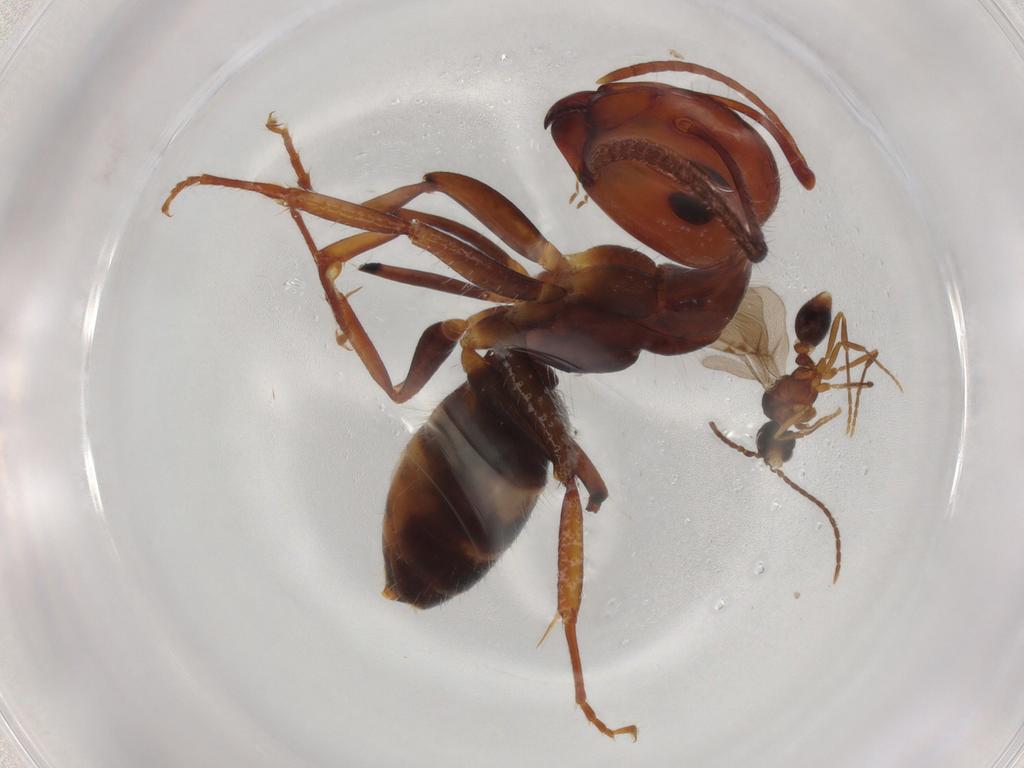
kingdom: Animalia
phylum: Arthropoda
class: Insecta
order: Hymenoptera
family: Formicidae
